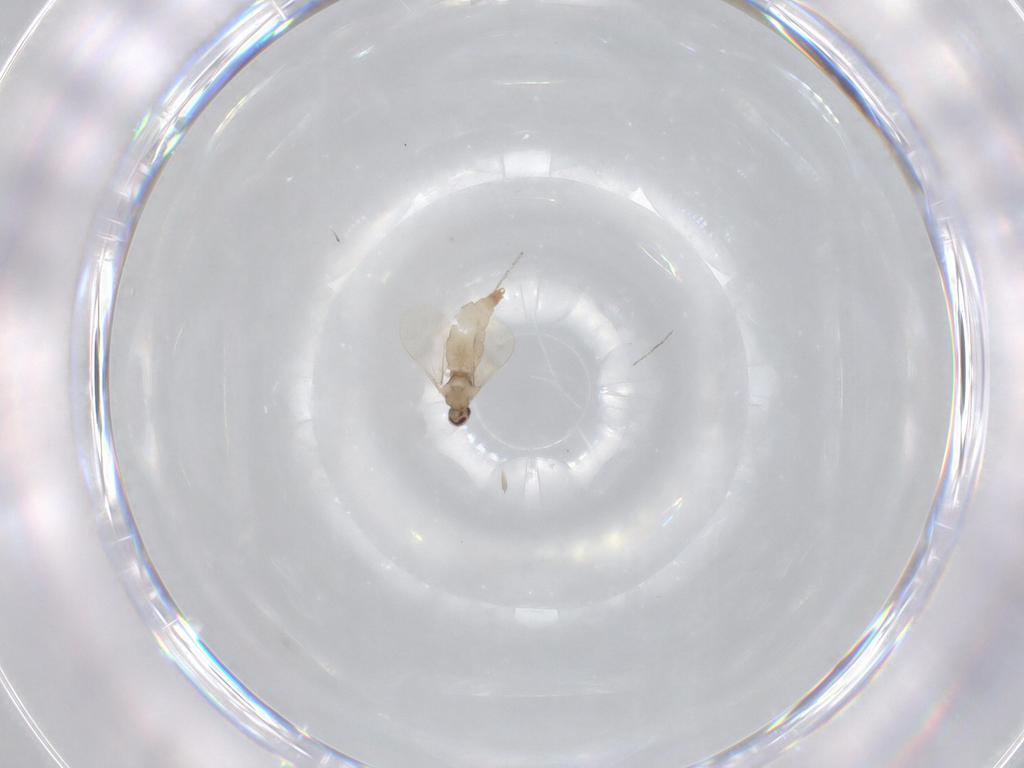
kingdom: Animalia
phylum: Arthropoda
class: Insecta
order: Diptera
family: Cecidomyiidae
